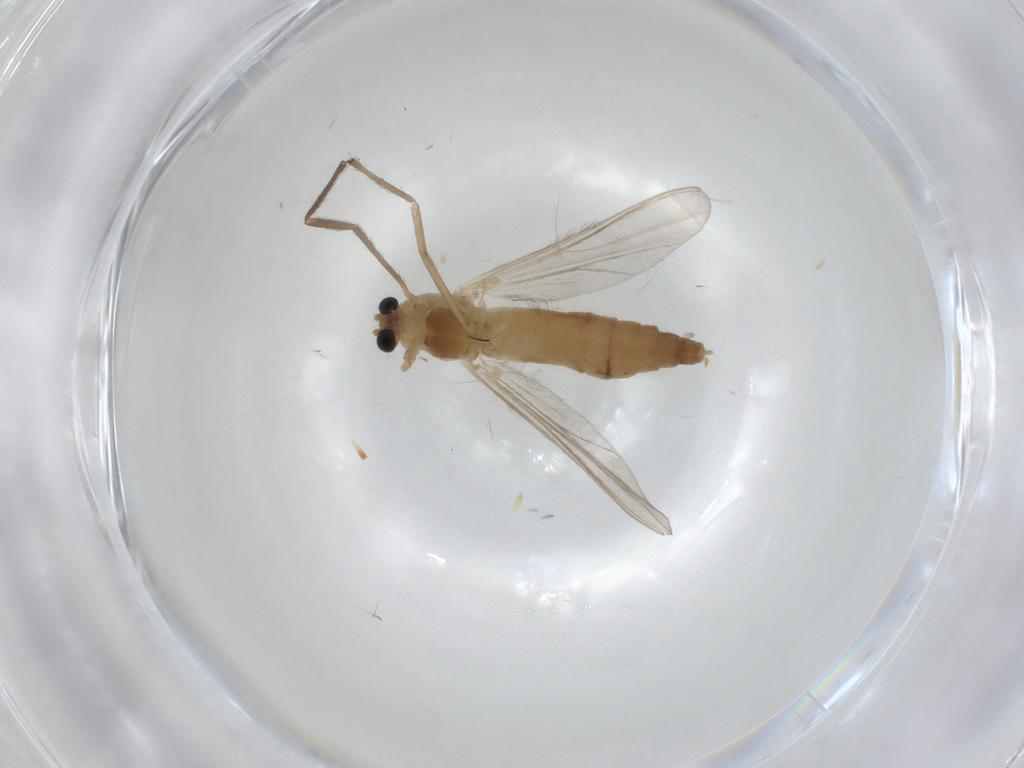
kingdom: Animalia
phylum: Arthropoda
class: Insecta
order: Diptera
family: Chironomidae
